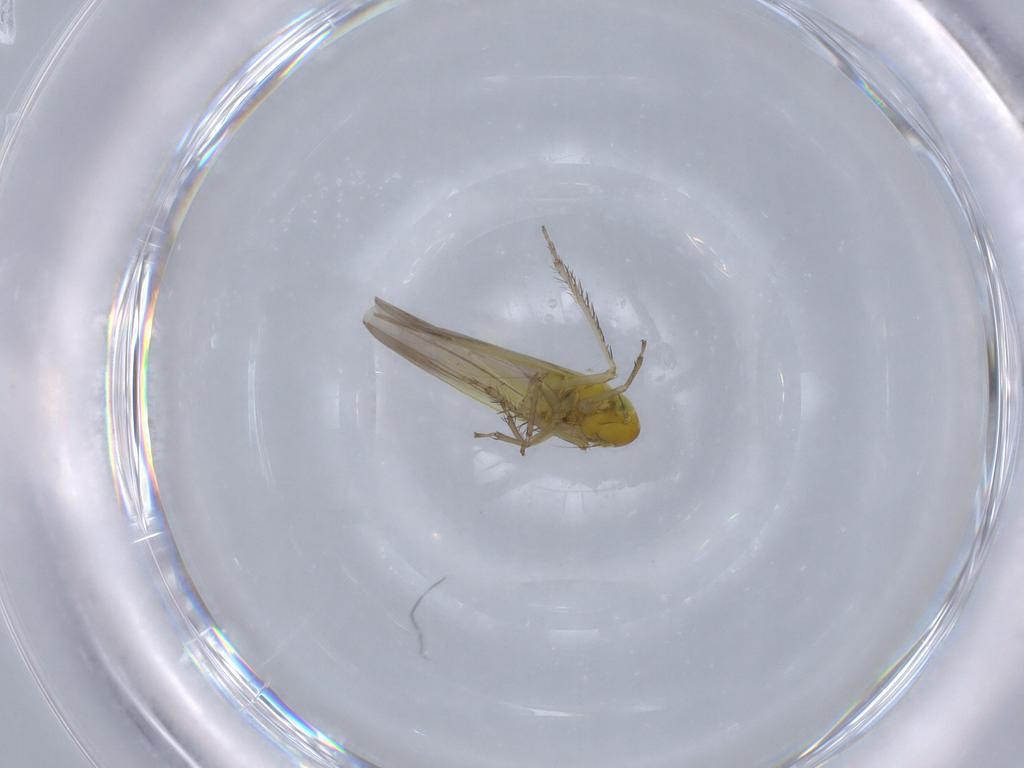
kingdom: Animalia
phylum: Arthropoda
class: Insecta
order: Hemiptera
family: Cicadellidae
